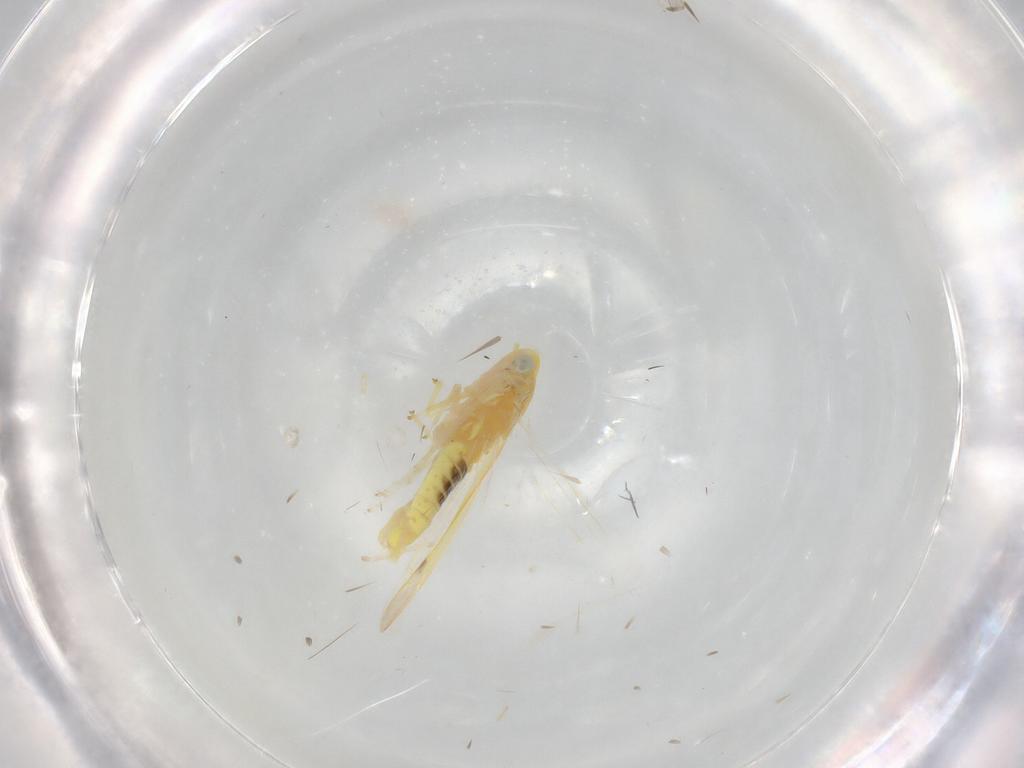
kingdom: Animalia
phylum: Arthropoda
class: Insecta
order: Hemiptera
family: Cicadellidae
